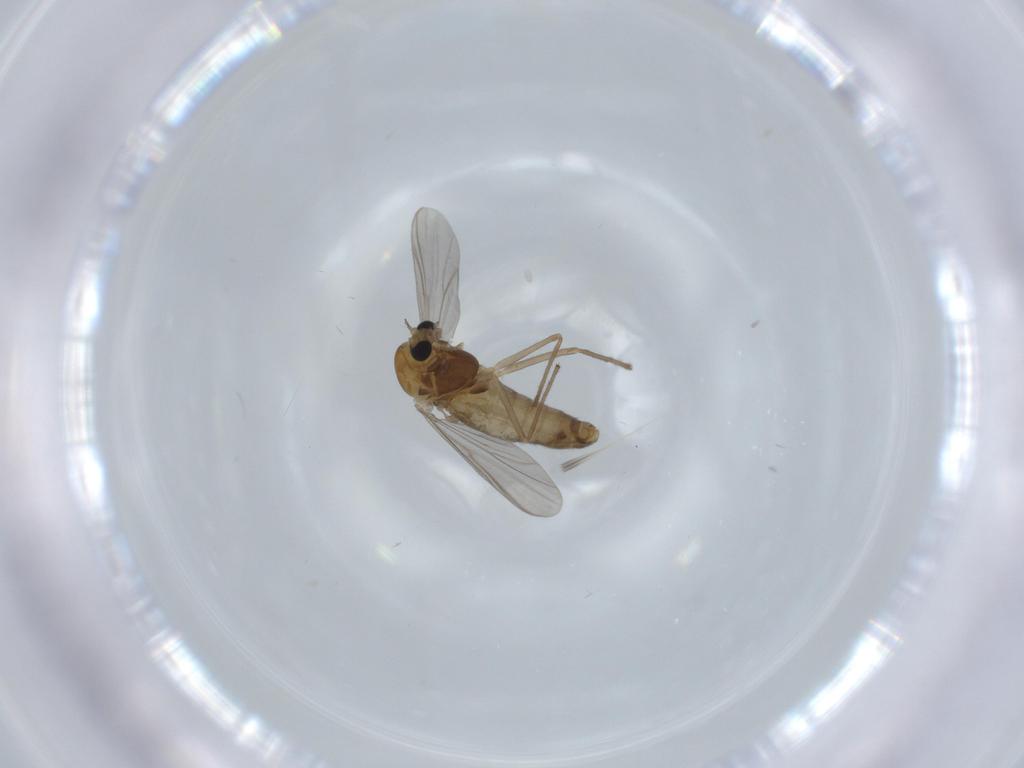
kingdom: Animalia
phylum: Arthropoda
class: Insecta
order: Diptera
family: Chironomidae
